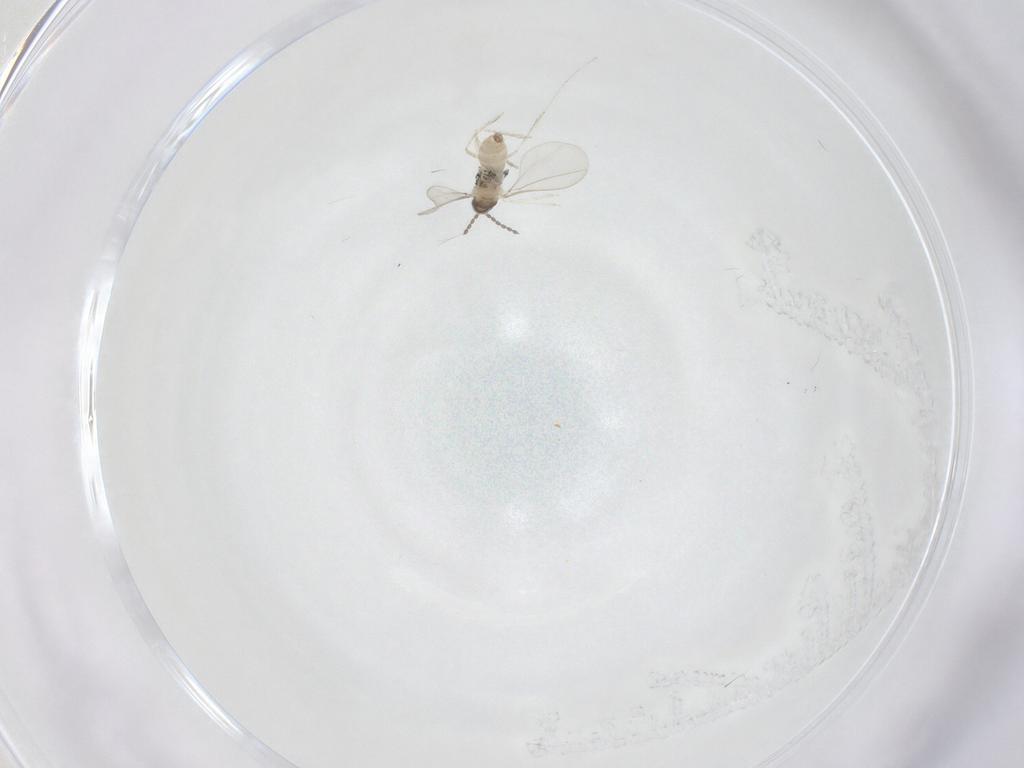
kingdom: Animalia
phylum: Arthropoda
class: Insecta
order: Diptera
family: Cecidomyiidae
